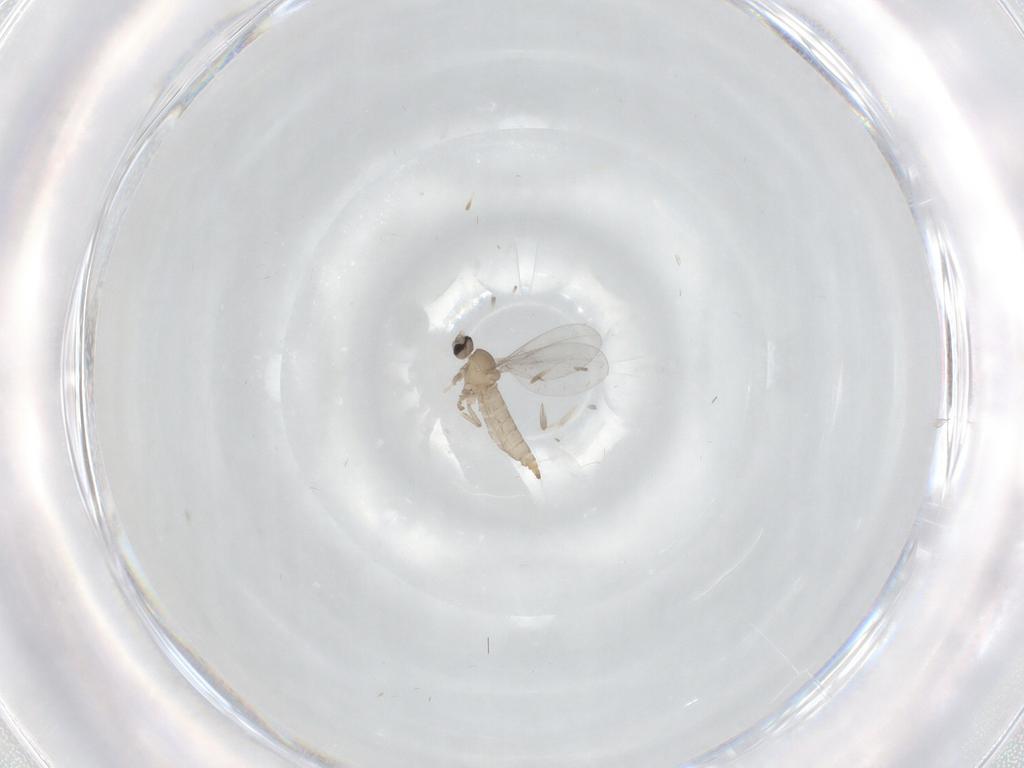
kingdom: Animalia
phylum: Arthropoda
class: Insecta
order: Diptera
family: Cecidomyiidae
